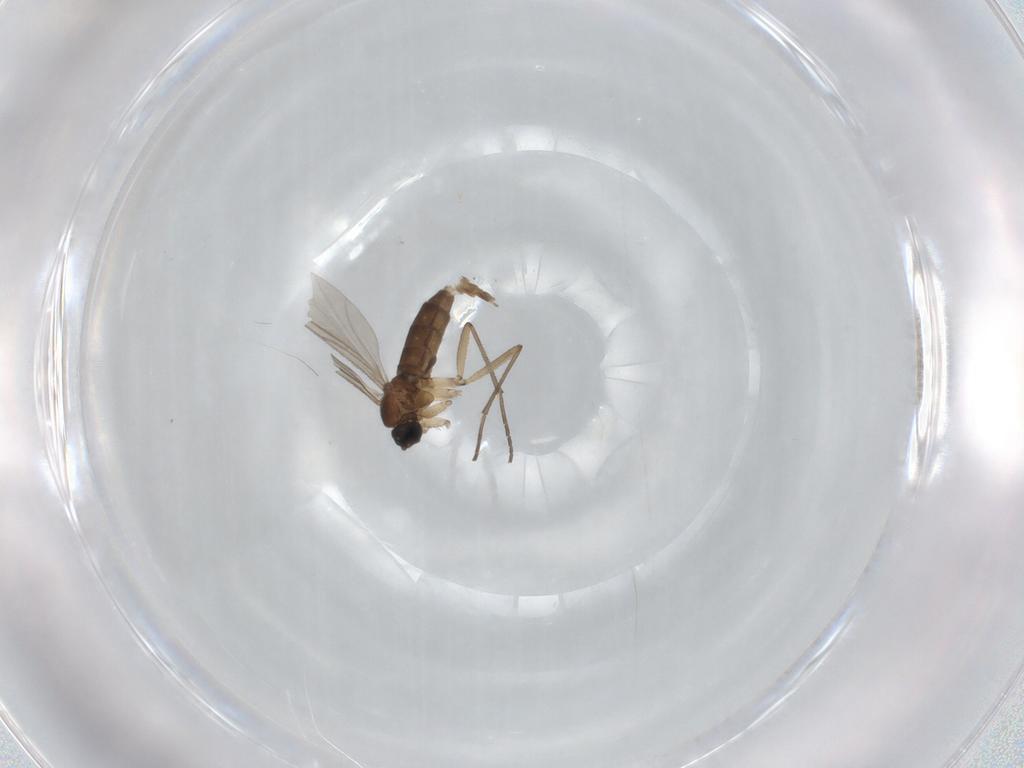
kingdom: Animalia
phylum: Arthropoda
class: Insecta
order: Diptera
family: Sciaridae
